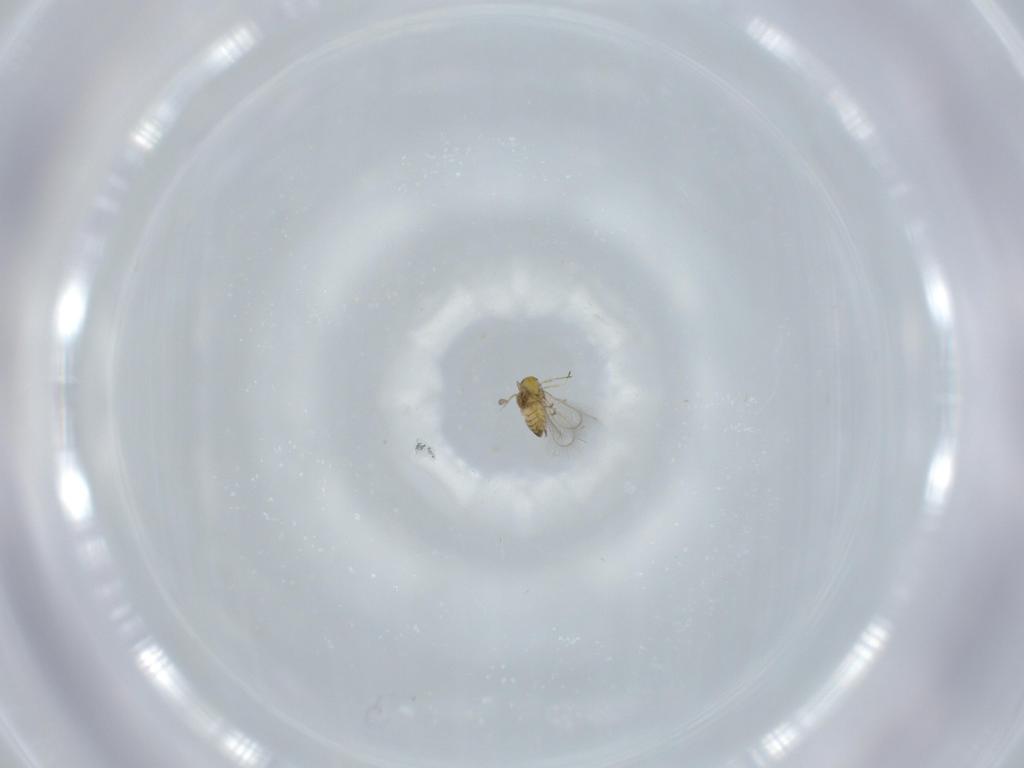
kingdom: Animalia
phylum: Arthropoda
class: Insecta
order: Hymenoptera
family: Trichogrammatidae
